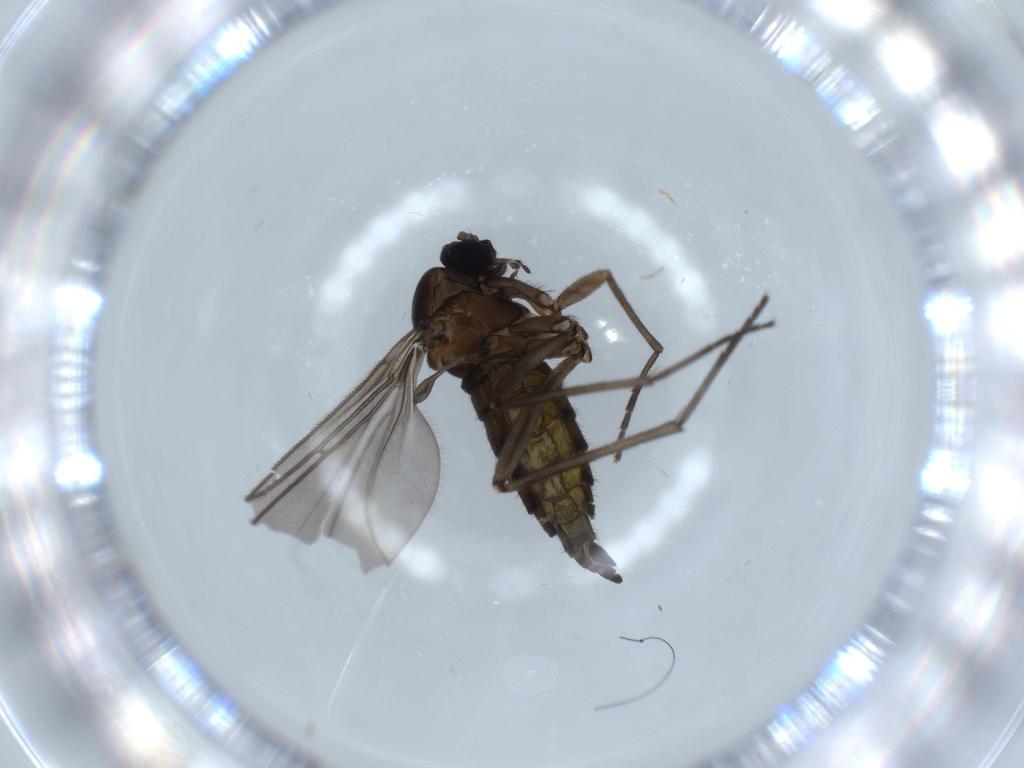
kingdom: Animalia
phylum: Arthropoda
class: Insecta
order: Diptera
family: Sciaridae
